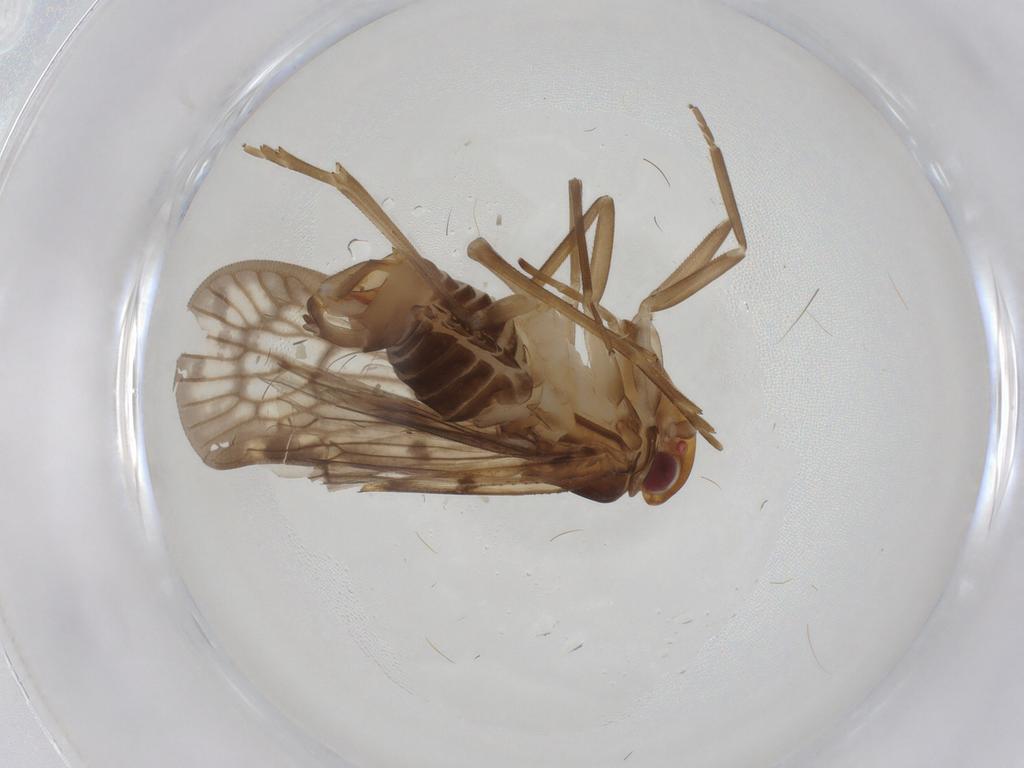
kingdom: Animalia
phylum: Arthropoda
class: Insecta
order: Hemiptera
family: Cixiidae
